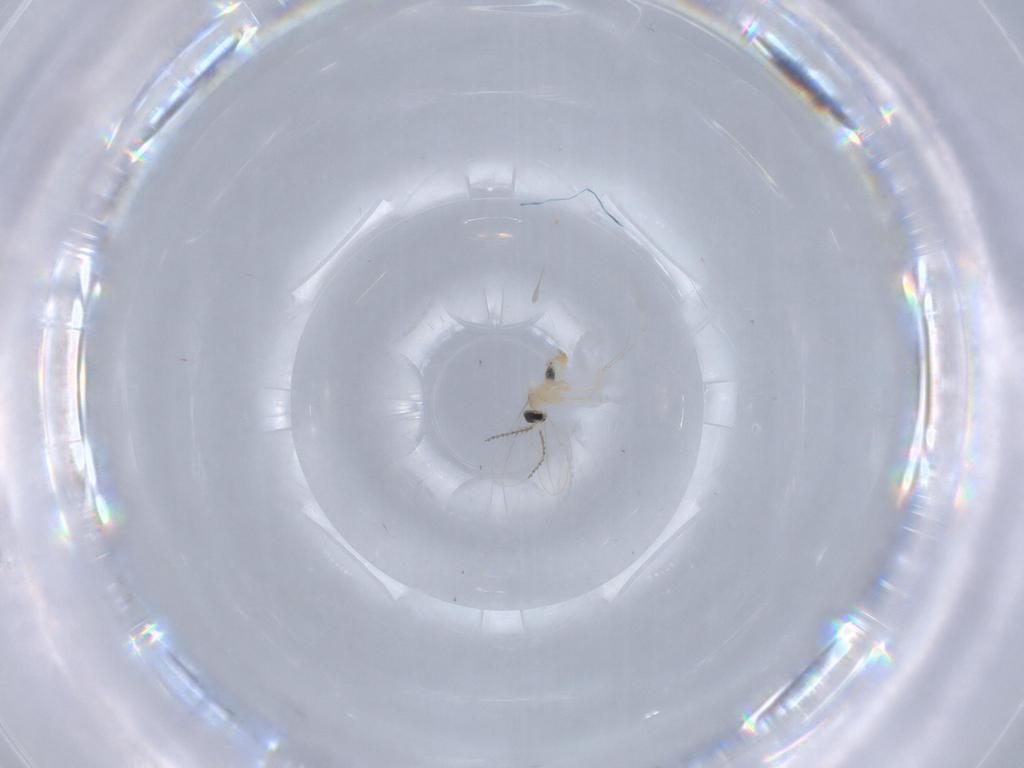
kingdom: Animalia
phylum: Arthropoda
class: Insecta
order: Diptera
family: Cecidomyiidae
